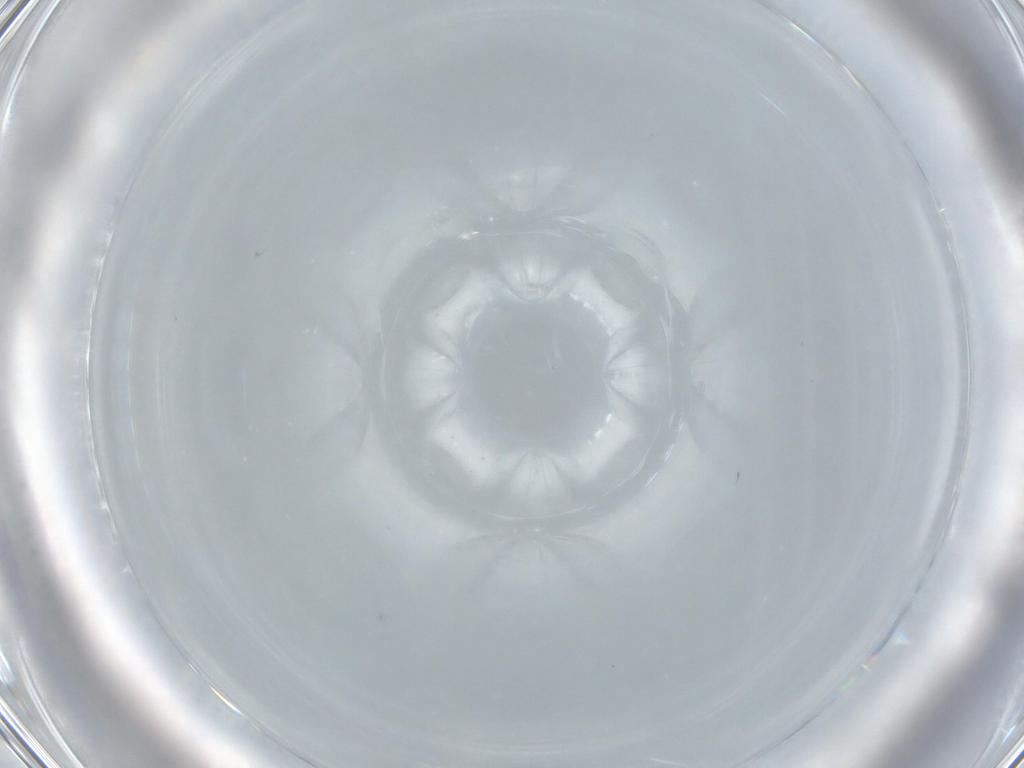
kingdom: Animalia
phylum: Arthropoda
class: Insecta
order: Diptera
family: Ceratopogonidae
